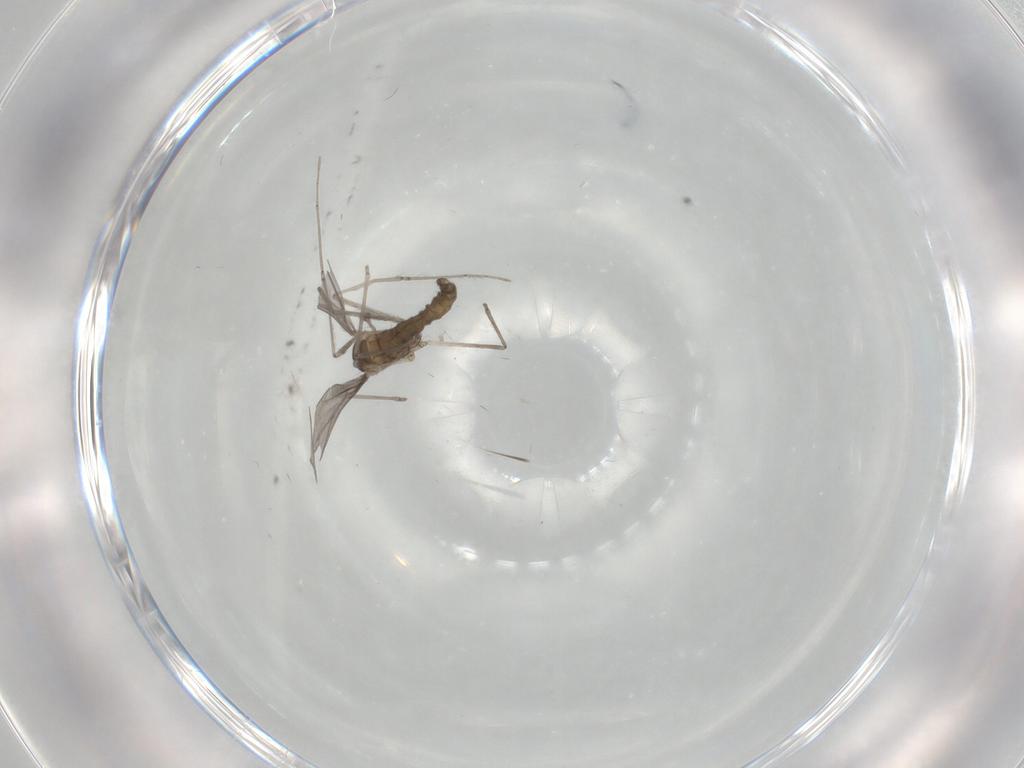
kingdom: Animalia
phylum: Arthropoda
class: Insecta
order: Diptera
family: Cecidomyiidae
